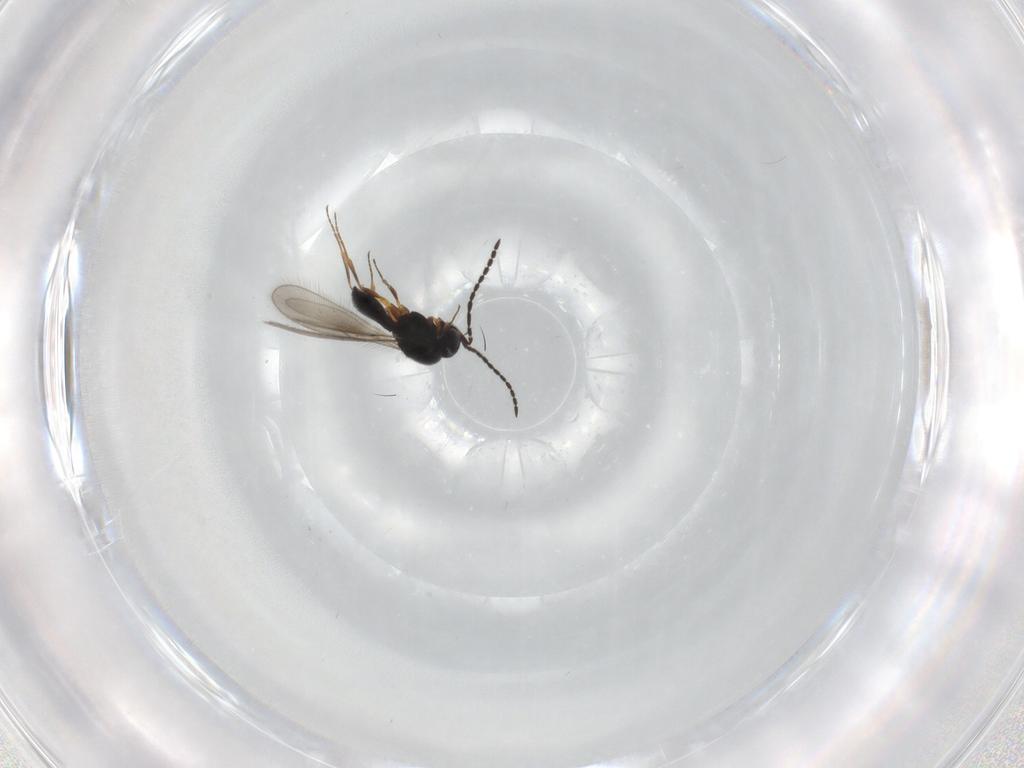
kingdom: Animalia
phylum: Arthropoda
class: Insecta
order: Hymenoptera
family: Scelionidae
